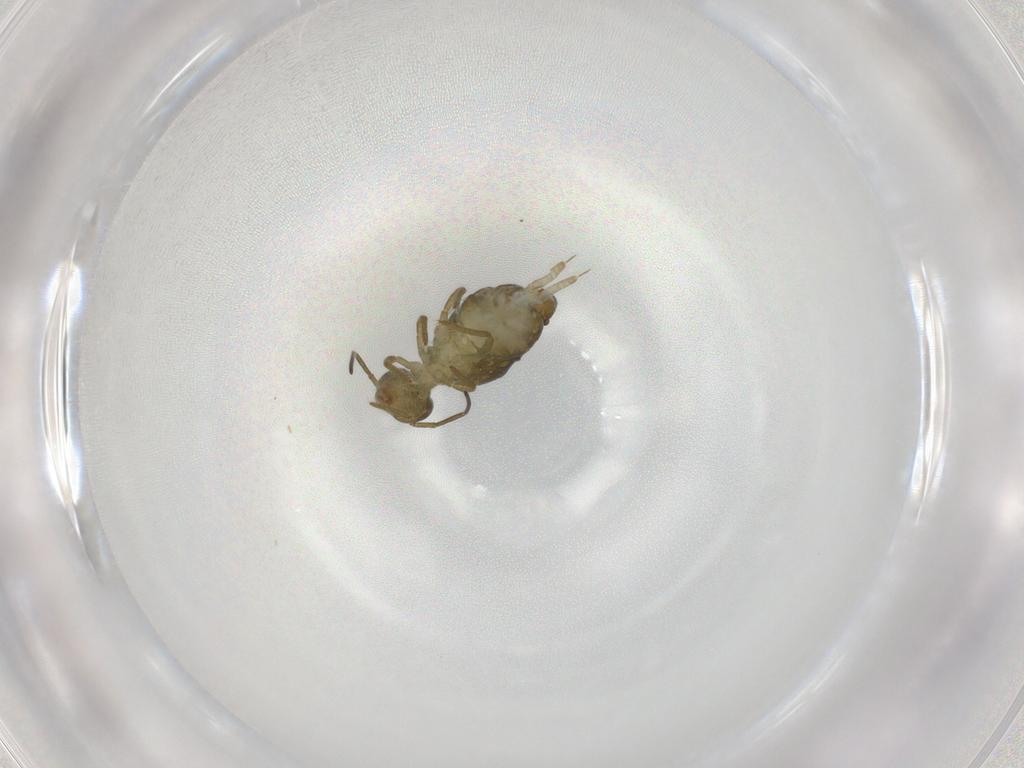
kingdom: Animalia
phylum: Arthropoda
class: Collembola
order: Symphypleona
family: Sminthuridae
